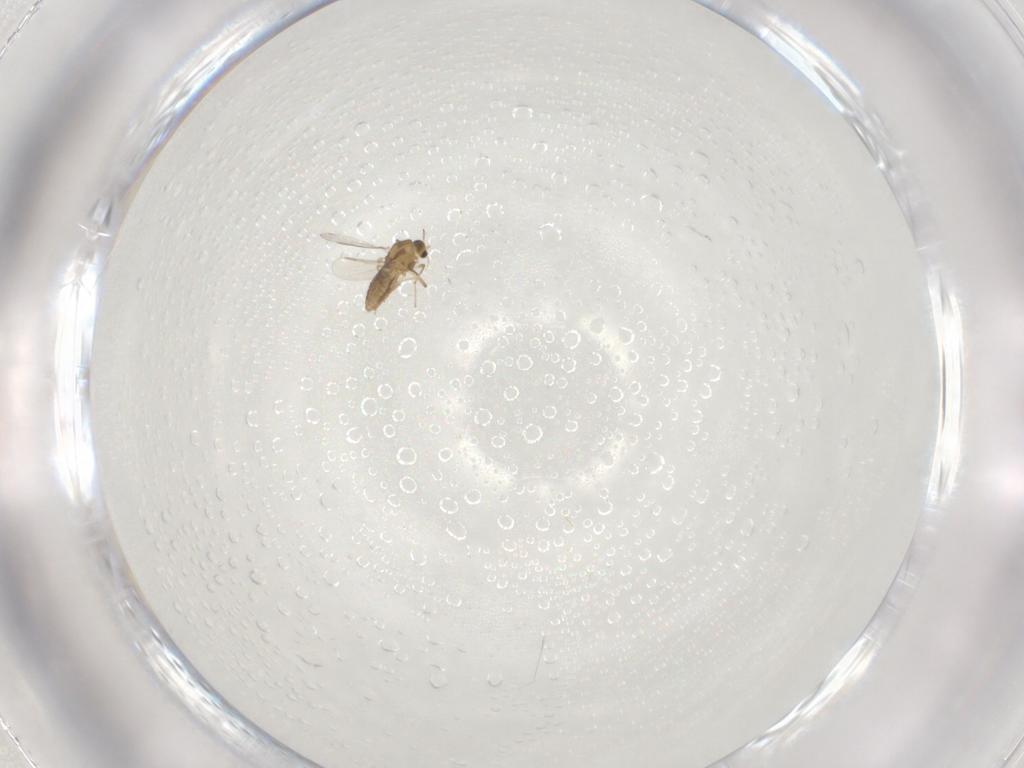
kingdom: Animalia
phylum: Arthropoda
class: Insecta
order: Diptera
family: Chironomidae
